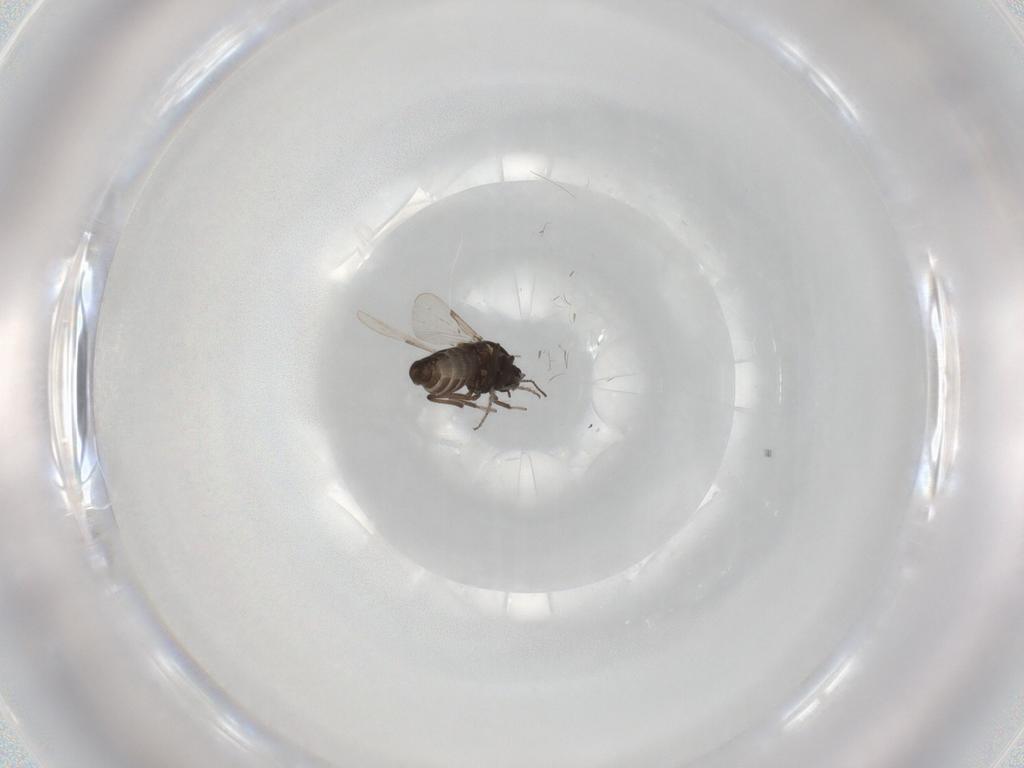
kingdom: Animalia
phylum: Arthropoda
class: Insecta
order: Diptera
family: Ceratopogonidae
